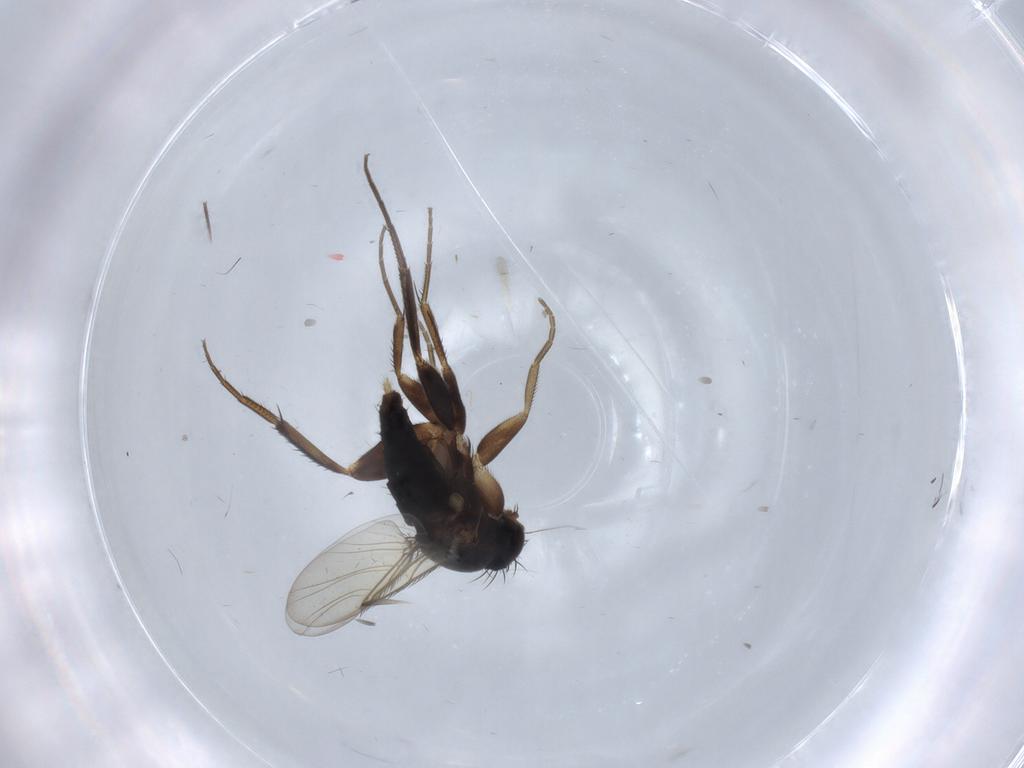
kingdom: Animalia
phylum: Arthropoda
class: Insecta
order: Diptera
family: Phoridae
